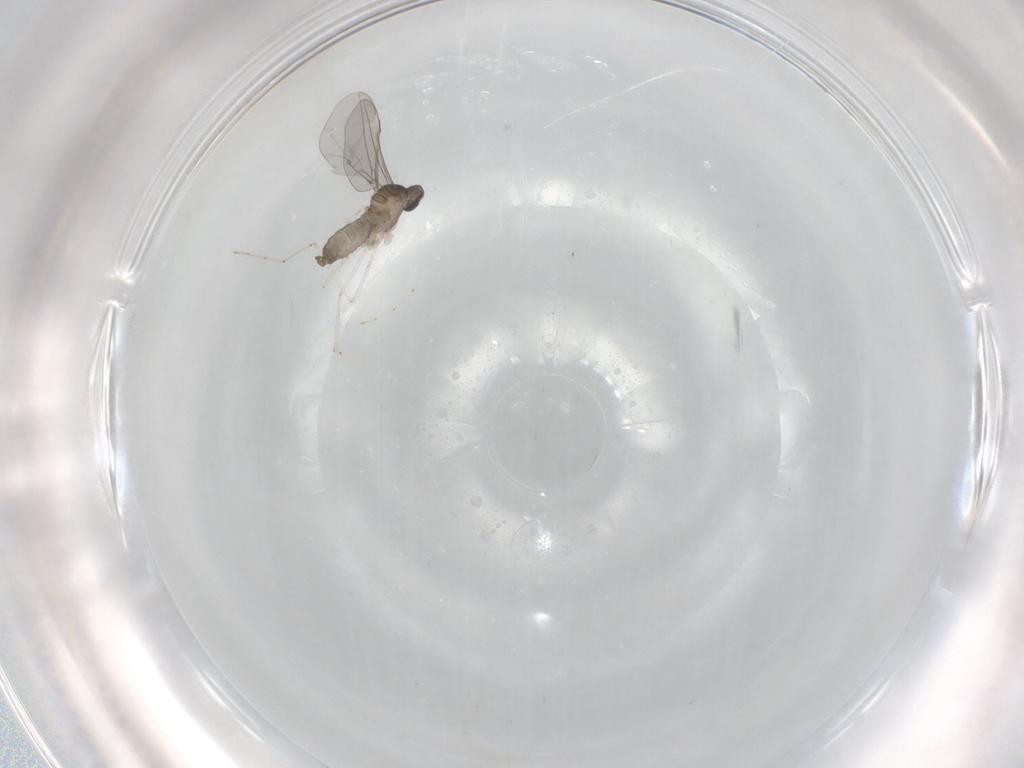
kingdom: Animalia
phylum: Arthropoda
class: Insecta
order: Diptera
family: Cecidomyiidae
